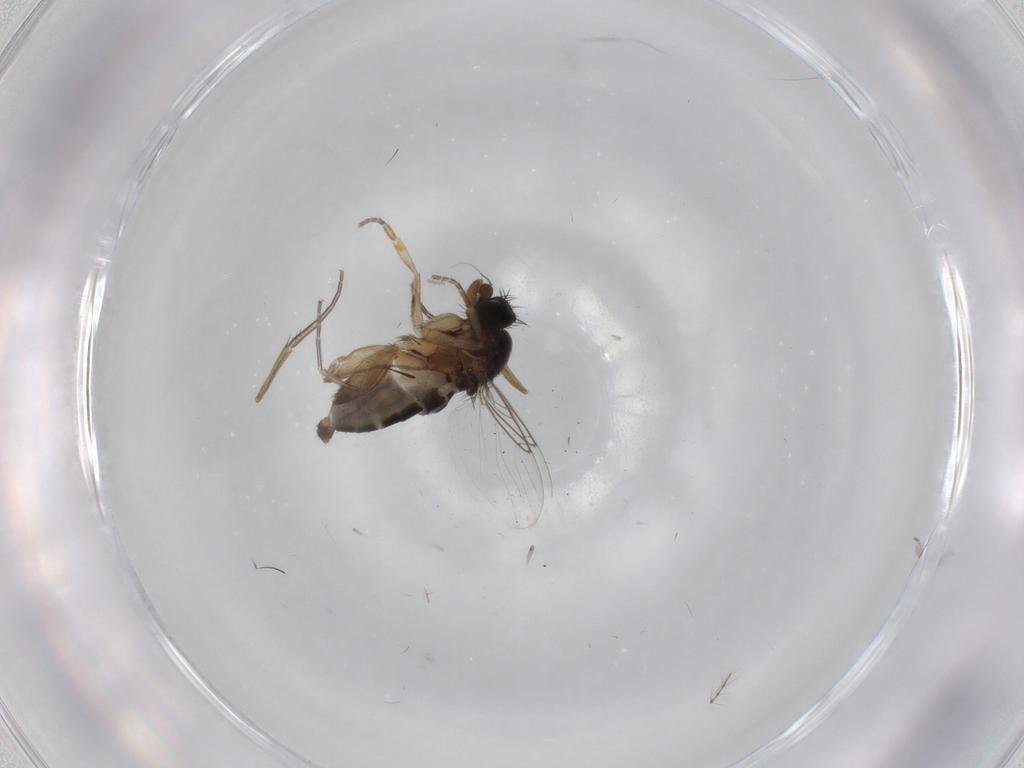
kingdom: Animalia
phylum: Arthropoda
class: Insecta
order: Diptera
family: Phoridae
